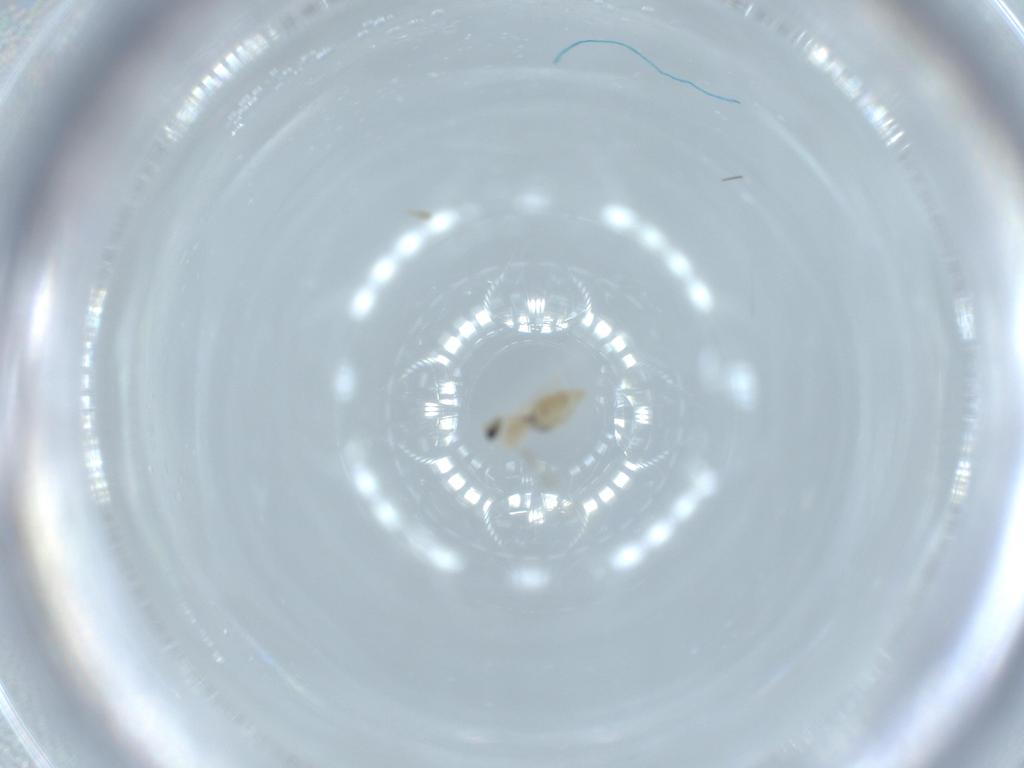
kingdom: Animalia
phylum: Arthropoda
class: Insecta
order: Diptera
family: Cecidomyiidae
